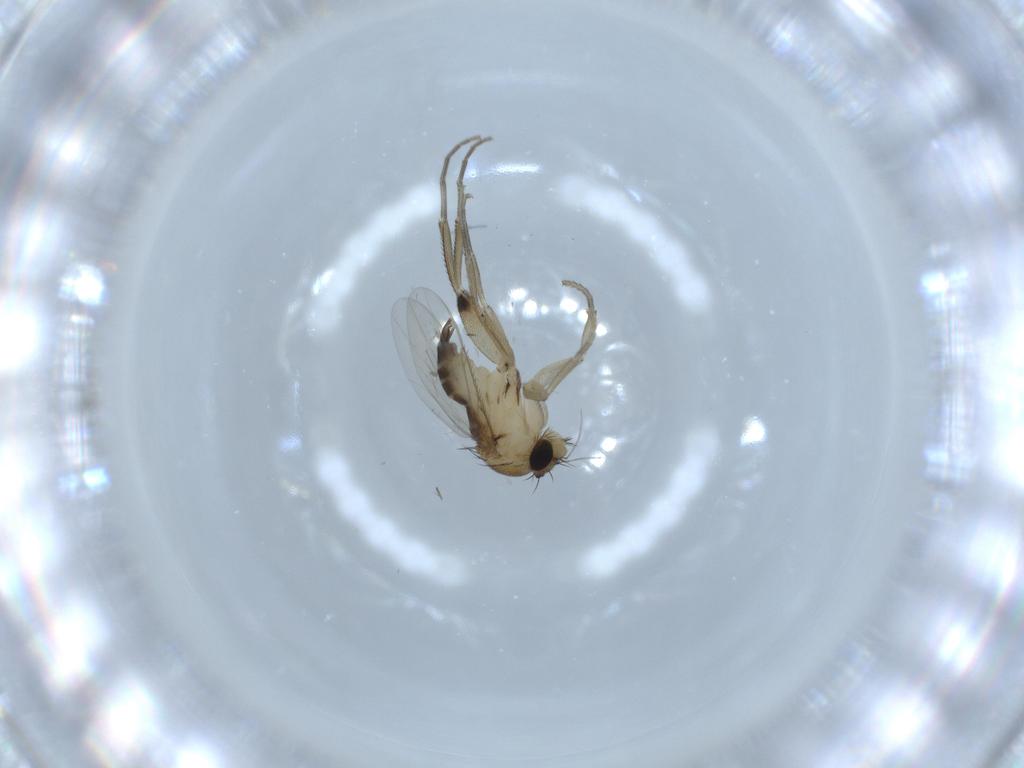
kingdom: Animalia
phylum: Arthropoda
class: Insecta
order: Diptera
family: Phoridae
